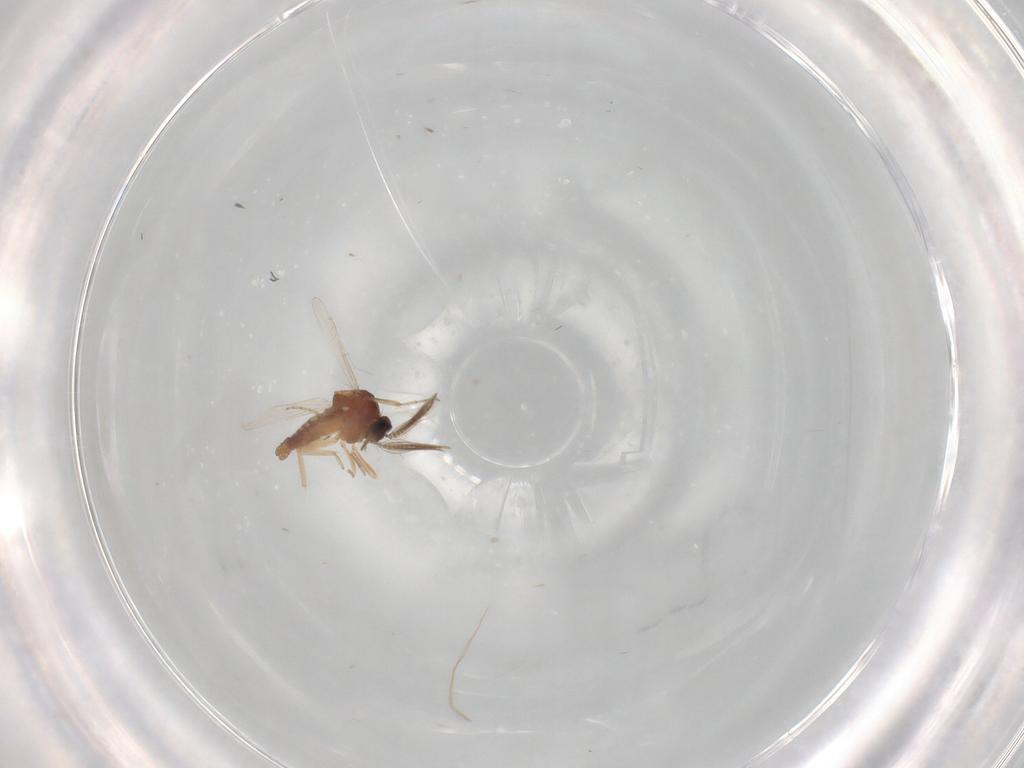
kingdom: Animalia
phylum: Arthropoda
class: Insecta
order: Diptera
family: Ceratopogonidae
